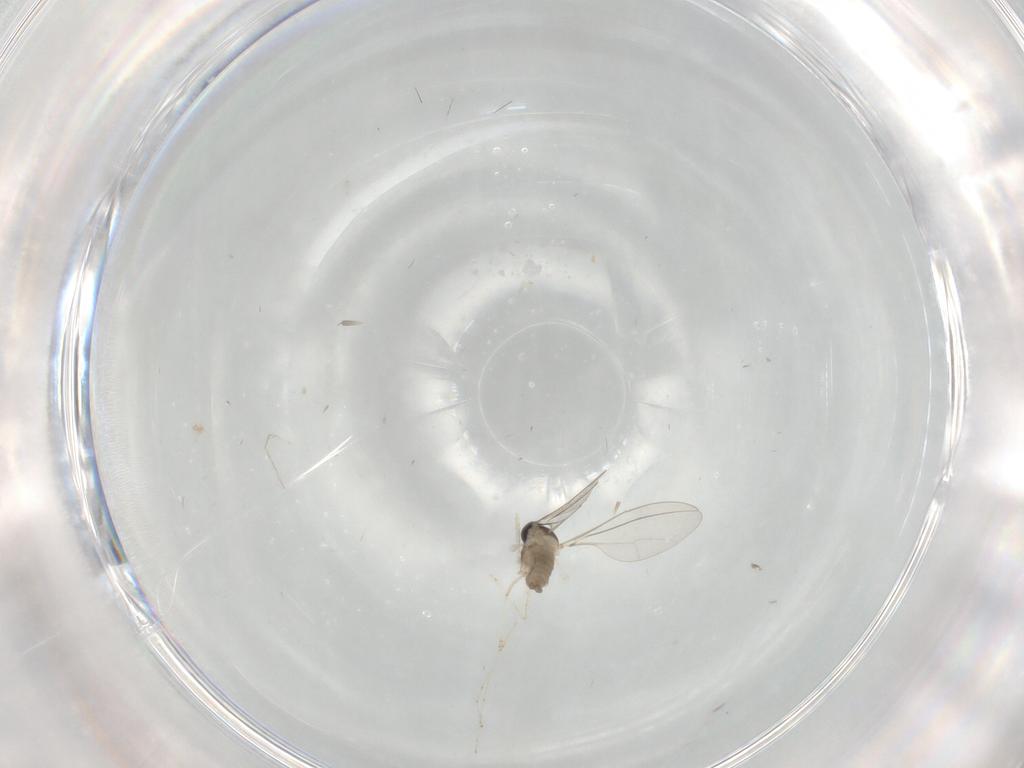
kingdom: Animalia
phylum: Arthropoda
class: Insecta
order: Diptera
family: Cecidomyiidae
